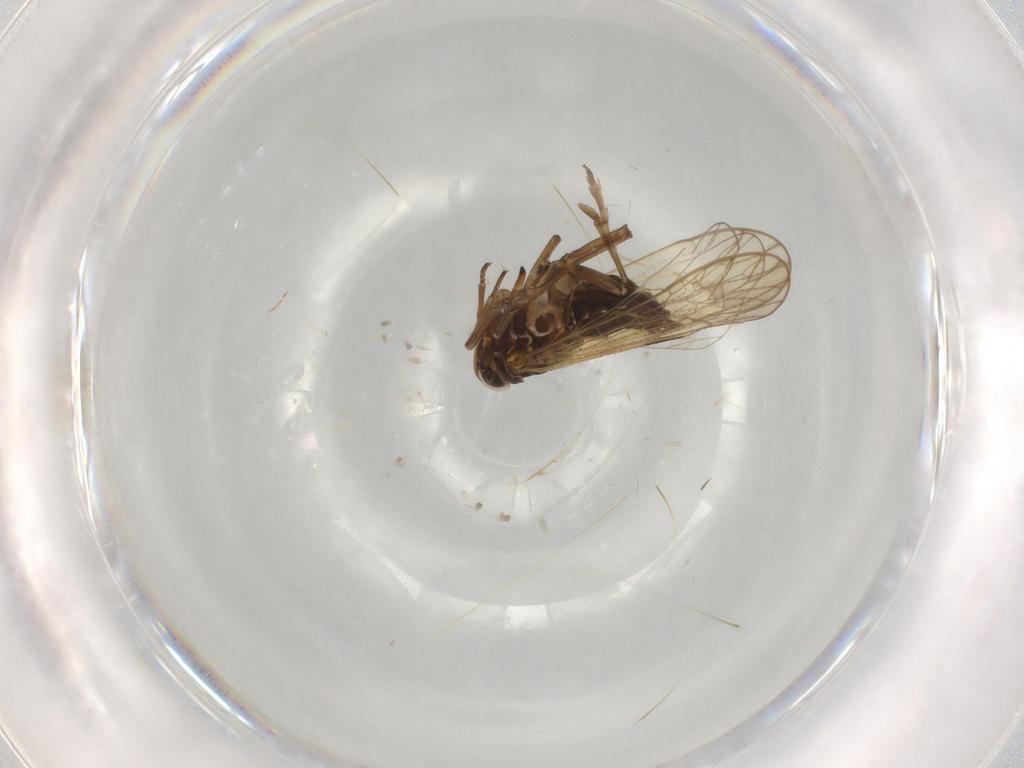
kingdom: Animalia
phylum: Arthropoda
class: Insecta
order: Hemiptera
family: Delphacidae
